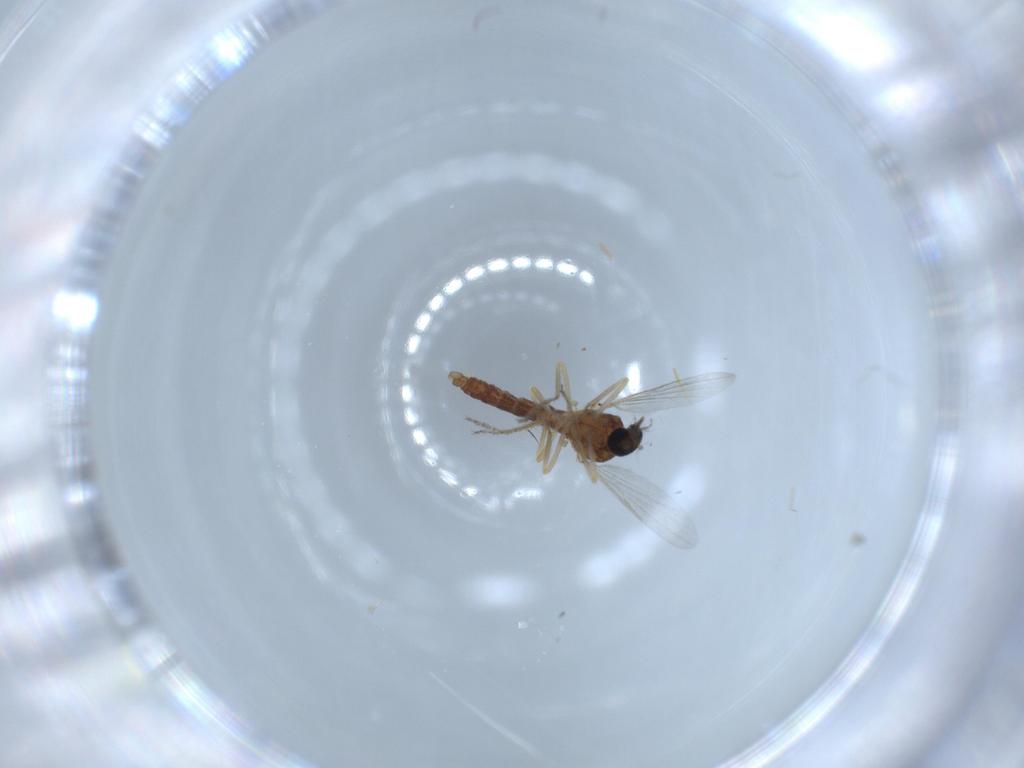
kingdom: Animalia
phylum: Arthropoda
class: Insecta
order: Diptera
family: Ceratopogonidae
